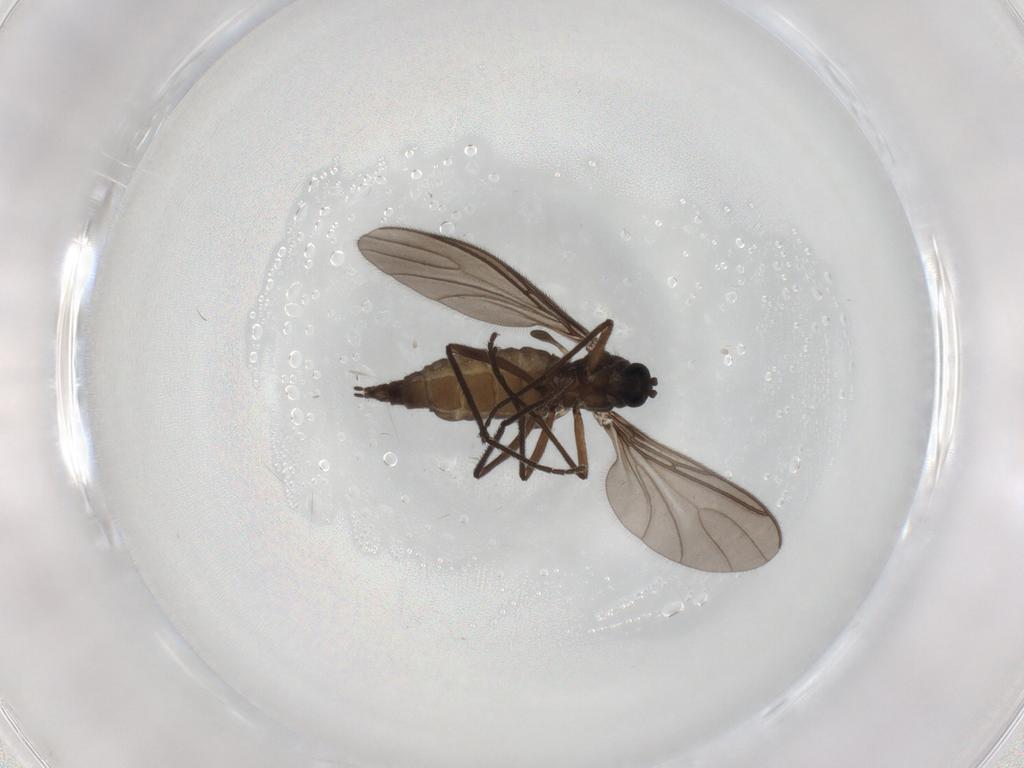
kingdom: Animalia
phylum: Arthropoda
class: Insecta
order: Diptera
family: Sciaridae
